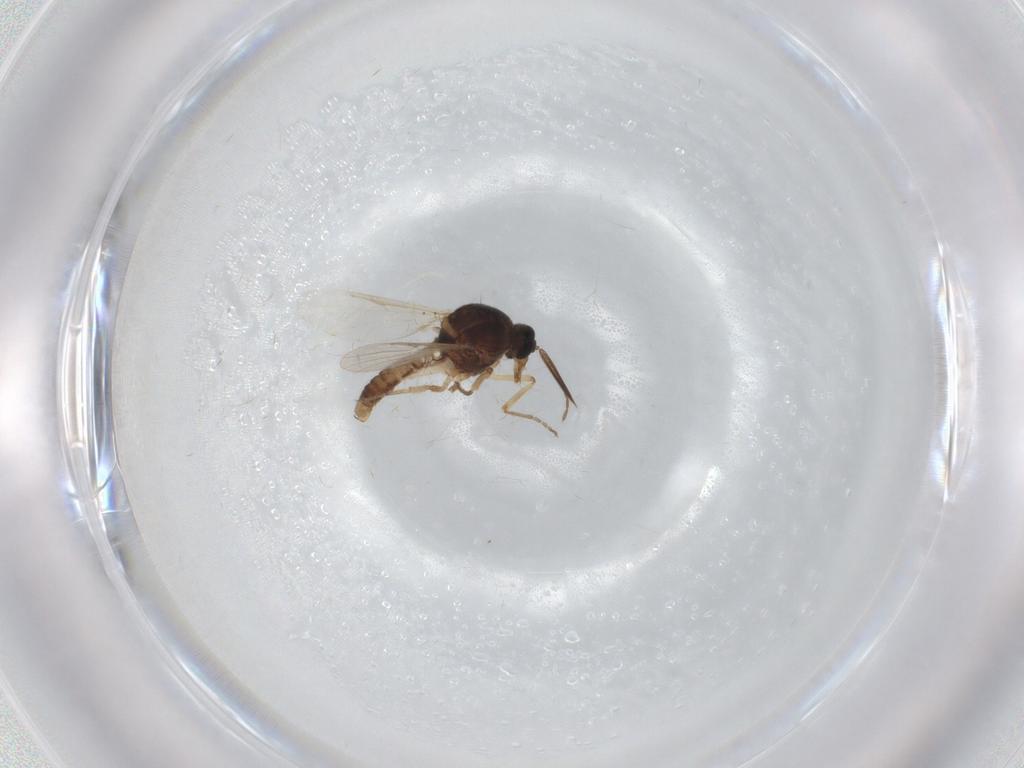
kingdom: Animalia
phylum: Arthropoda
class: Insecta
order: Diptera
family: Ceratopogonidae
